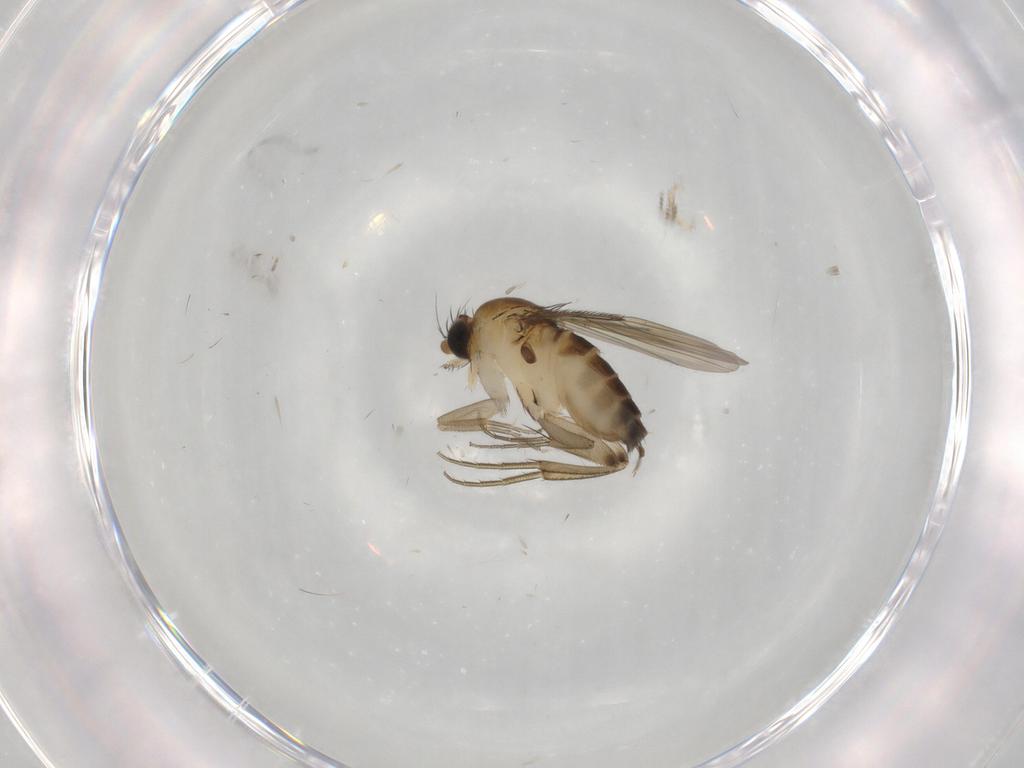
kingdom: Animalia
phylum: Arthropoda
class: Insecta
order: Diptera
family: Phoridae
